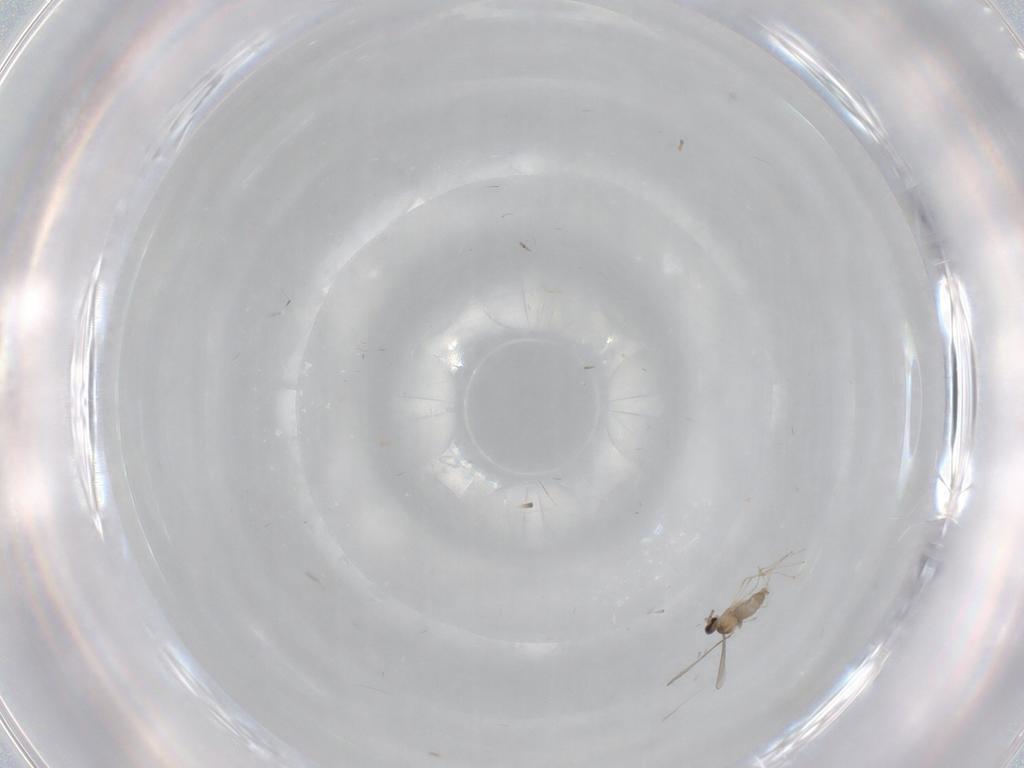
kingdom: Animalia
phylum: Arthropoda
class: Insecta
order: Diptera
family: Cecidomyiidae
